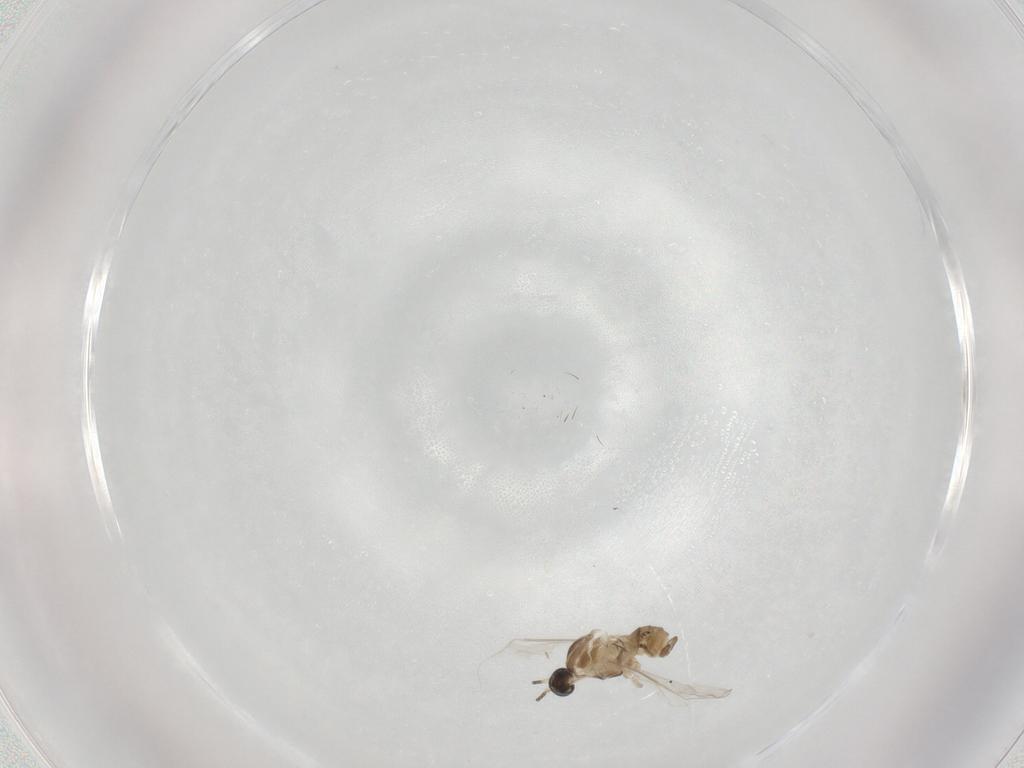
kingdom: Animalia
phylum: Arthropoda
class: Insecta
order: Diptera
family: Cecidomyiidae
